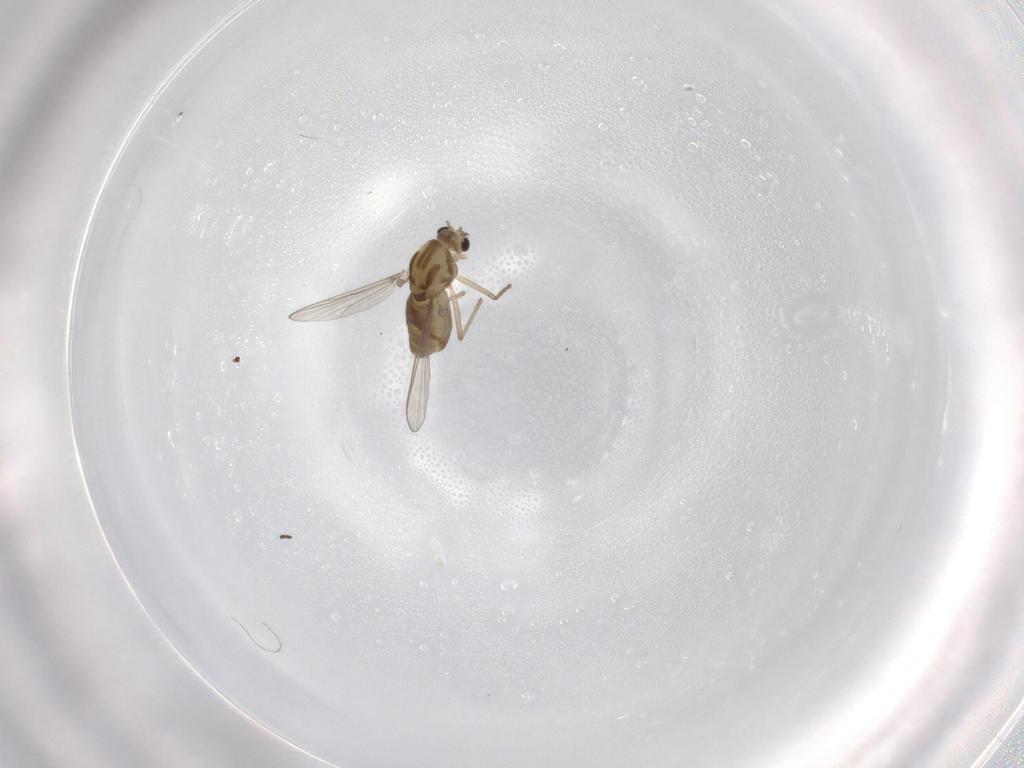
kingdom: Animalia
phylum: Arthropoda
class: Insecta
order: Diptera
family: Chironomidae
